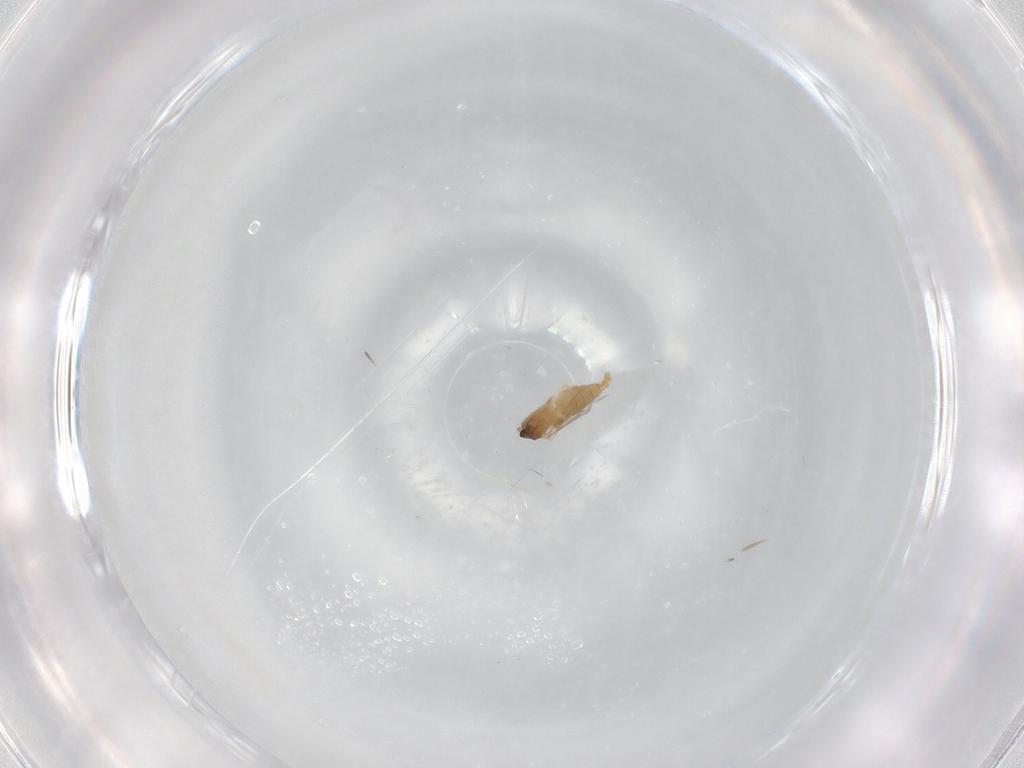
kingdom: Animalia
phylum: Arthropoda
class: Insecta
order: Diptera
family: Cecidomyiidae
